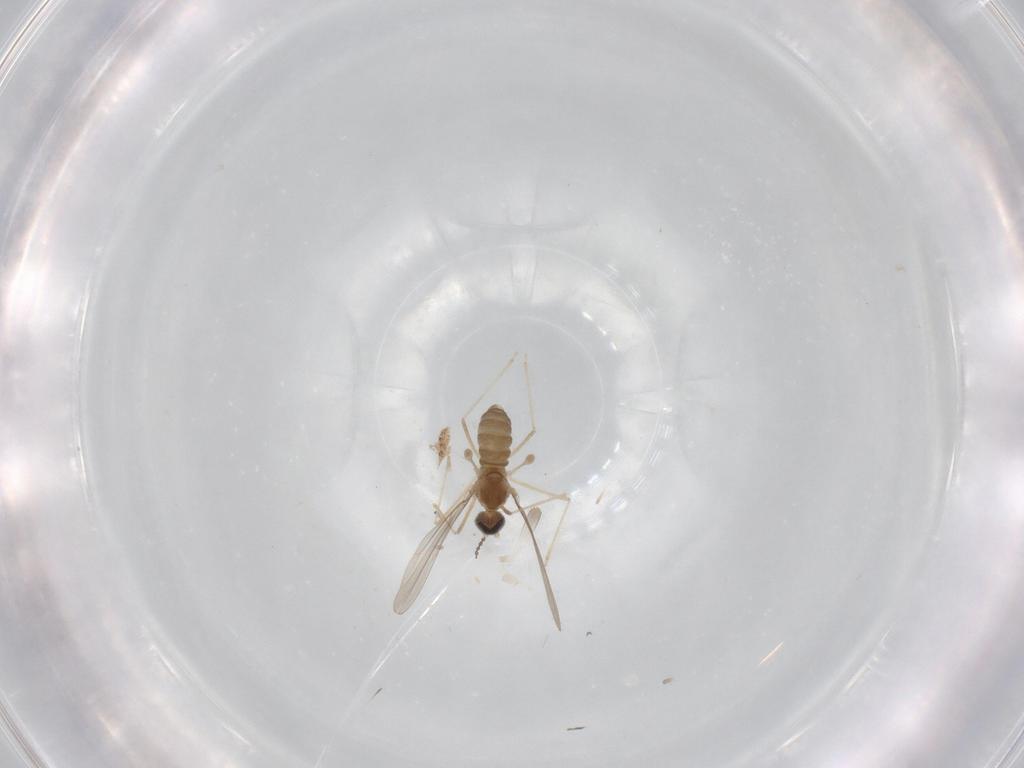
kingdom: Animalia
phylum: Arthropoda
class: Insecta
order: Diptera
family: Cecidomyiidae
